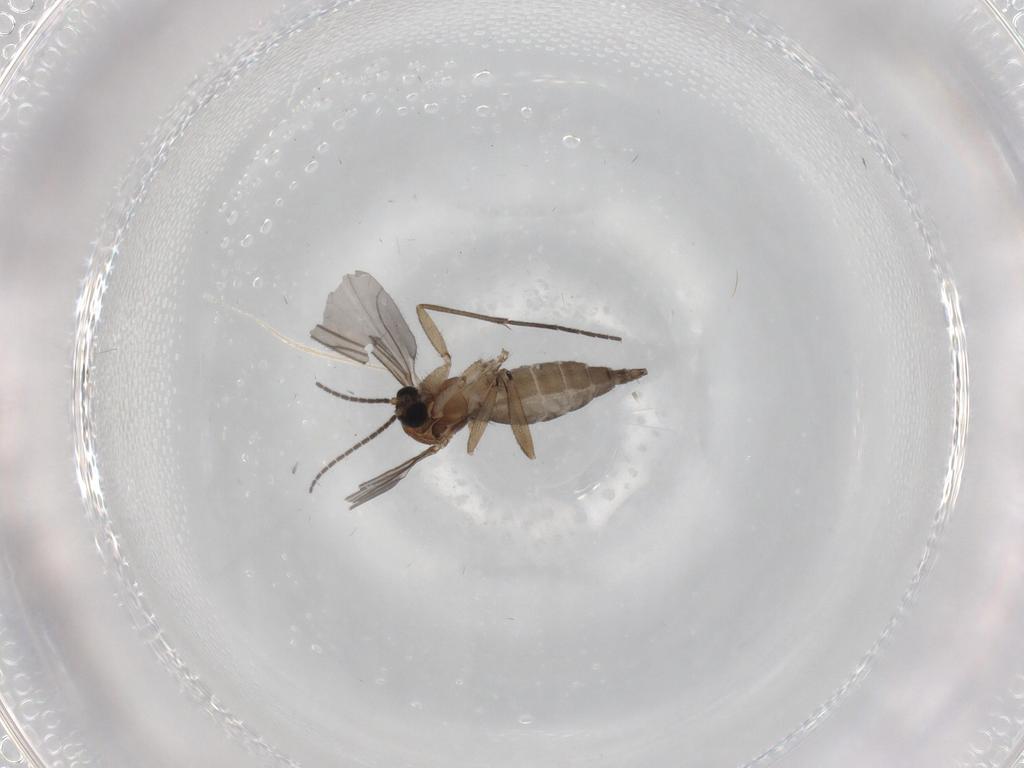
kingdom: Animalia
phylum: Arthropoda
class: Insecta
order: Diptera
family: Sciaridae
